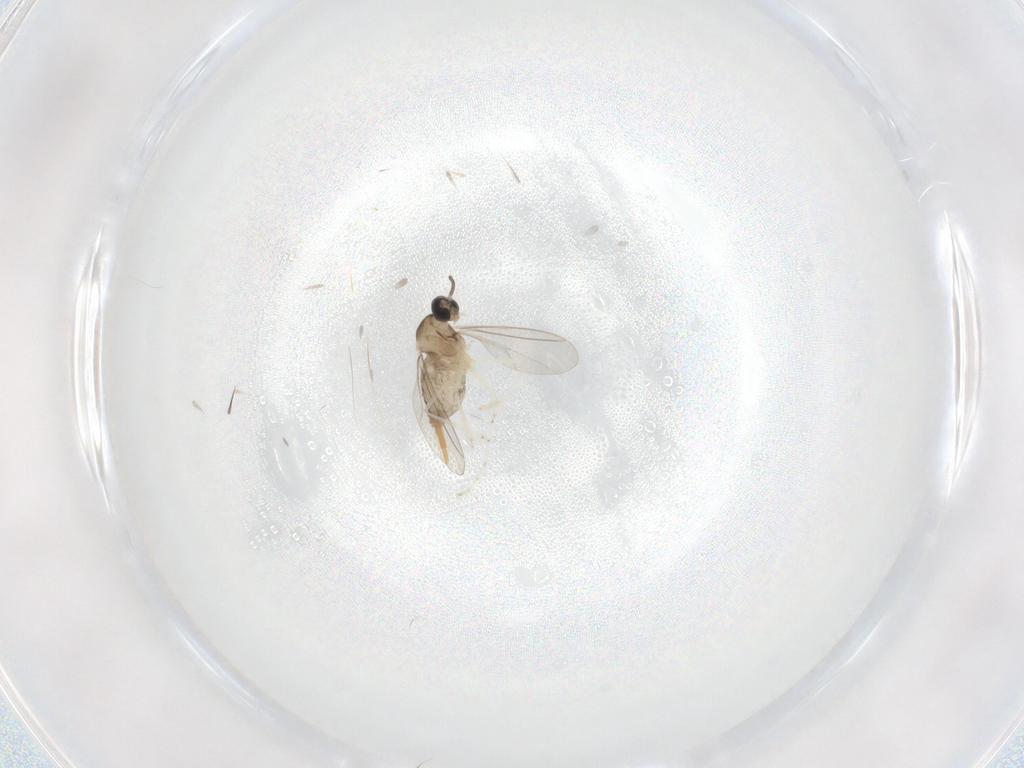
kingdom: Animalia
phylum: Arthropoda
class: Insecta
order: Diptera
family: Cecidomyiidae
